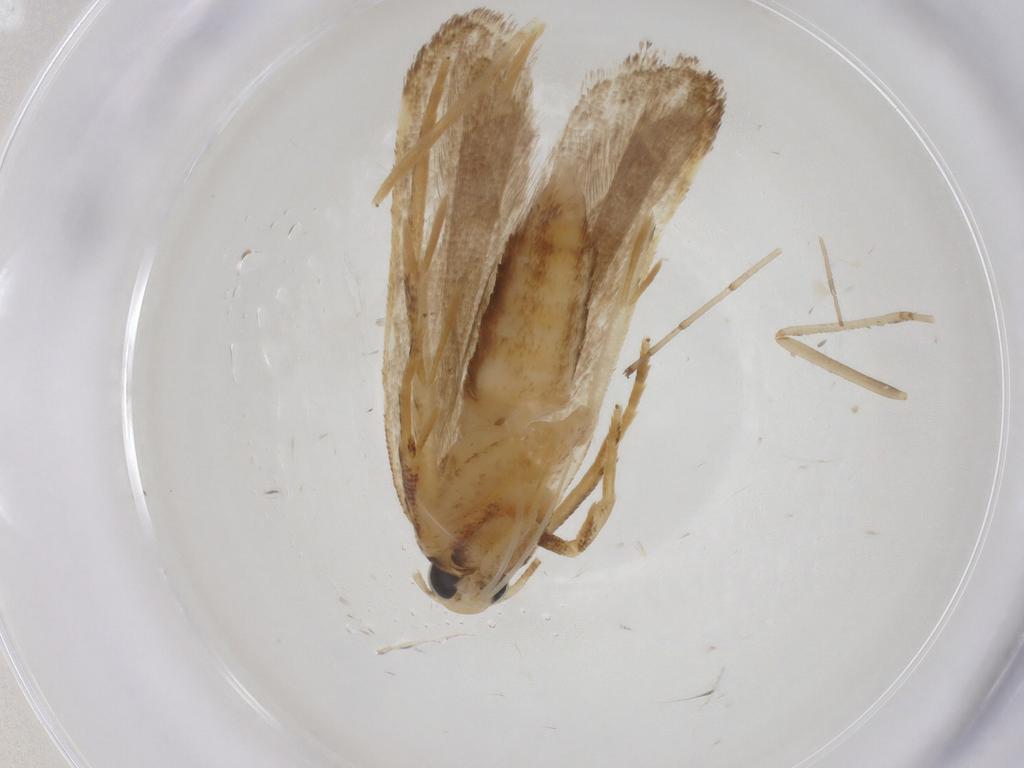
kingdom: Animalia
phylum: Arthropoda
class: Insecta
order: Lepidoptera
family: Gelechiidae
